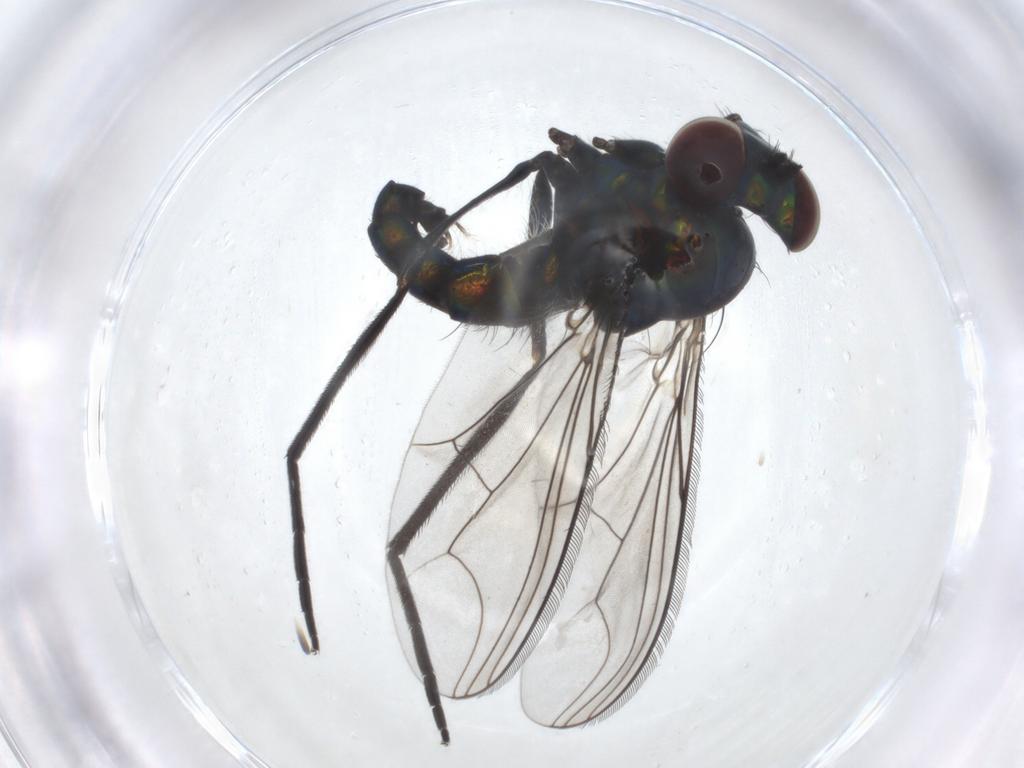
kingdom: Animalia
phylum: Arthropoda
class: Insecta
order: Diptera
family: Dolichopodidae
